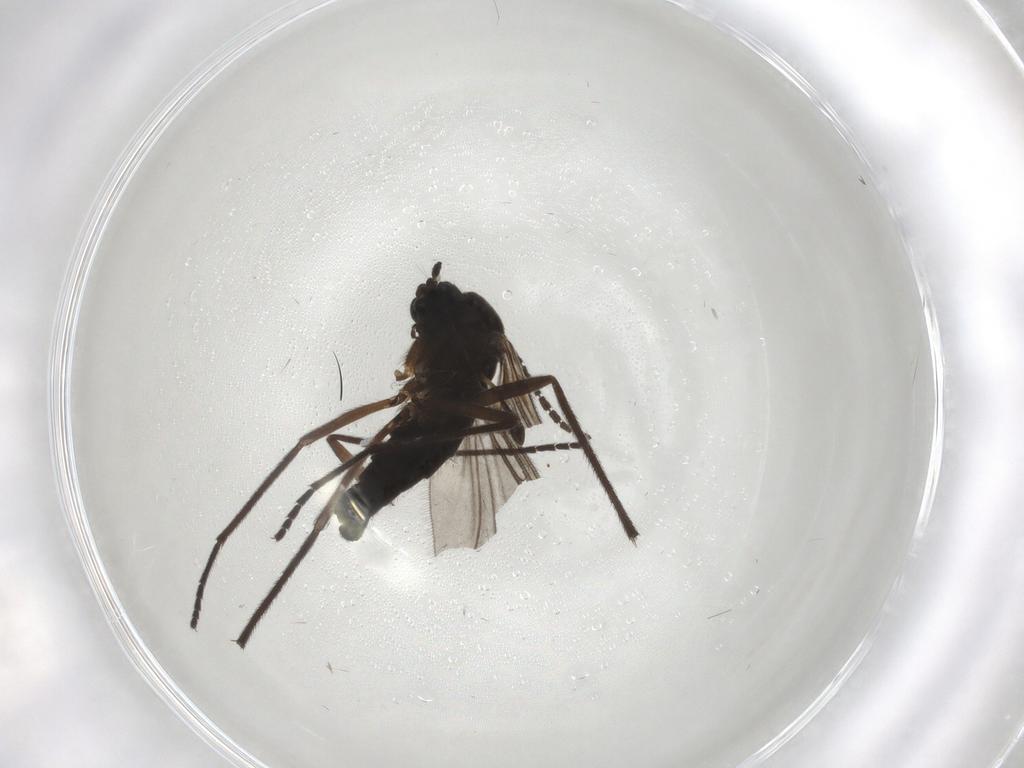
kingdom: Animalia
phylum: Arthropoda
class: Insecta
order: Diptera
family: Sciaridae
